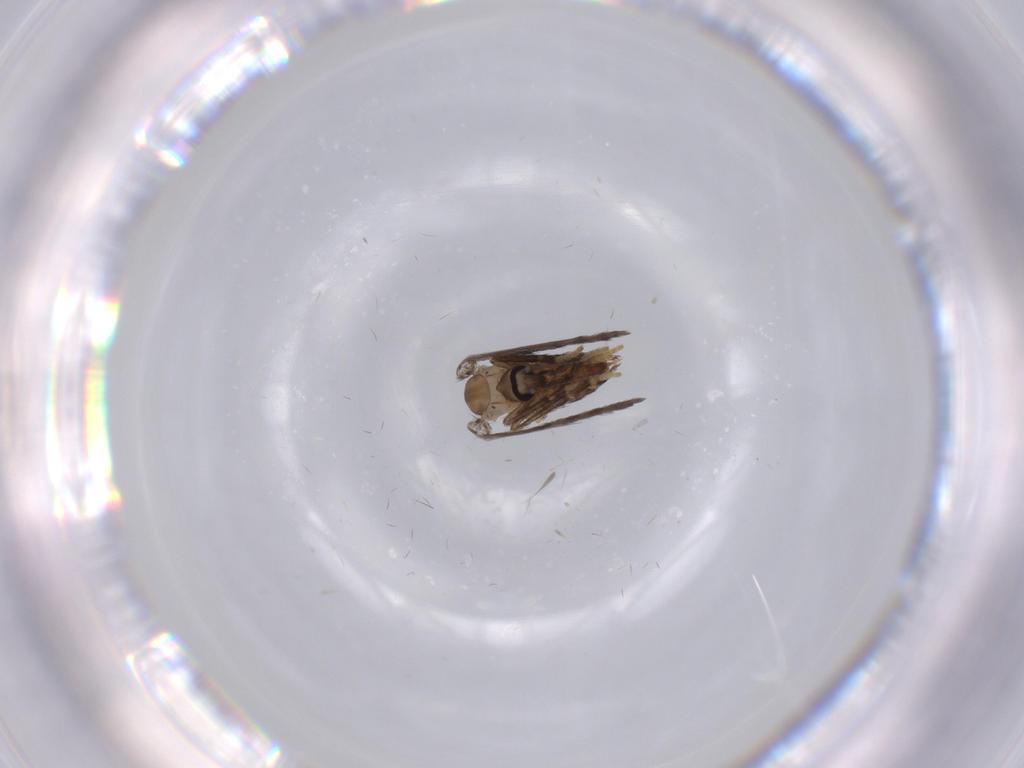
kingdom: Animalia
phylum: Arthropoda
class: Insecta
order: Diptera
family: Psychodidae
